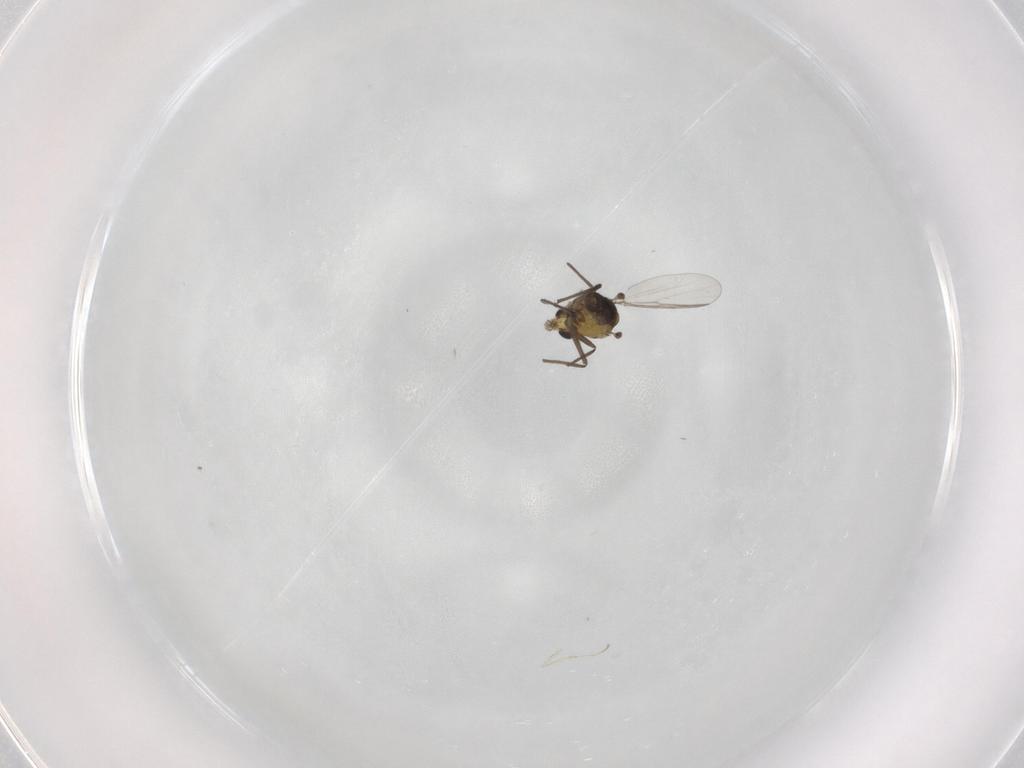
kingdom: Animalia
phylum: Arthropoda
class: Insecta
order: Diptera
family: Chironomidae
